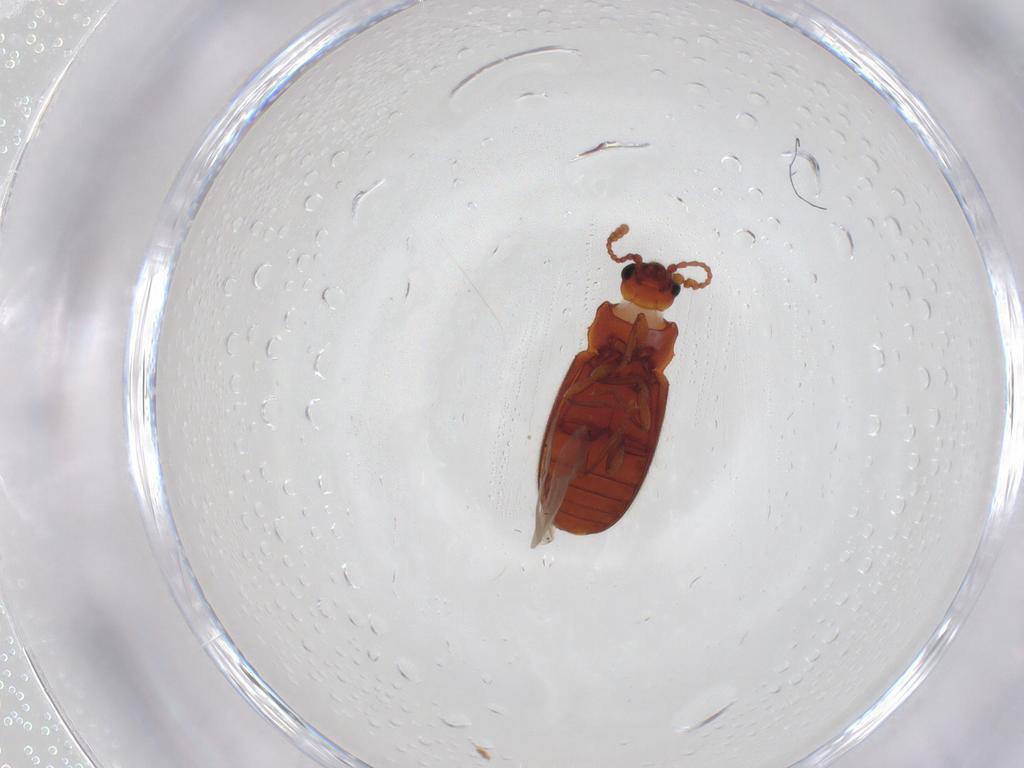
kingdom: Animalia
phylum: Arthropoda
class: Insecta
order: Coleoptera
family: Cryptophagidae
